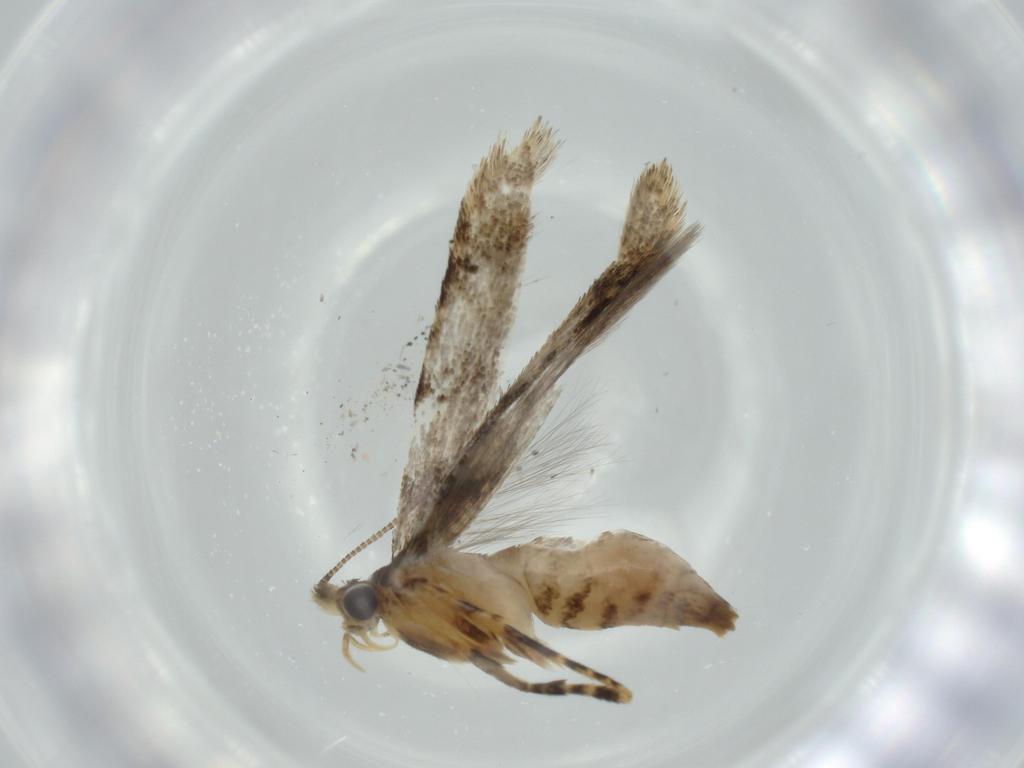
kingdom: Animalia
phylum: Arthropoda
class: Insecta
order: Lepidoptera
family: Tineidae
